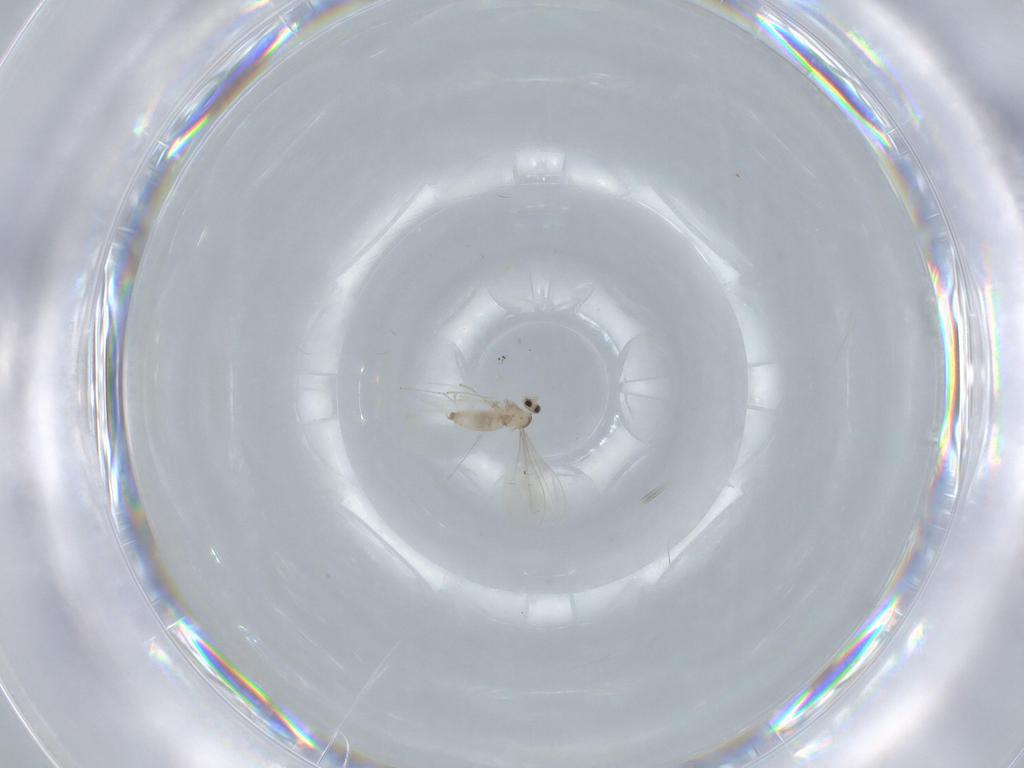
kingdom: Animalia
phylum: Arthropoda
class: Insecta
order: Diptera
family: Cecidomyiidae
